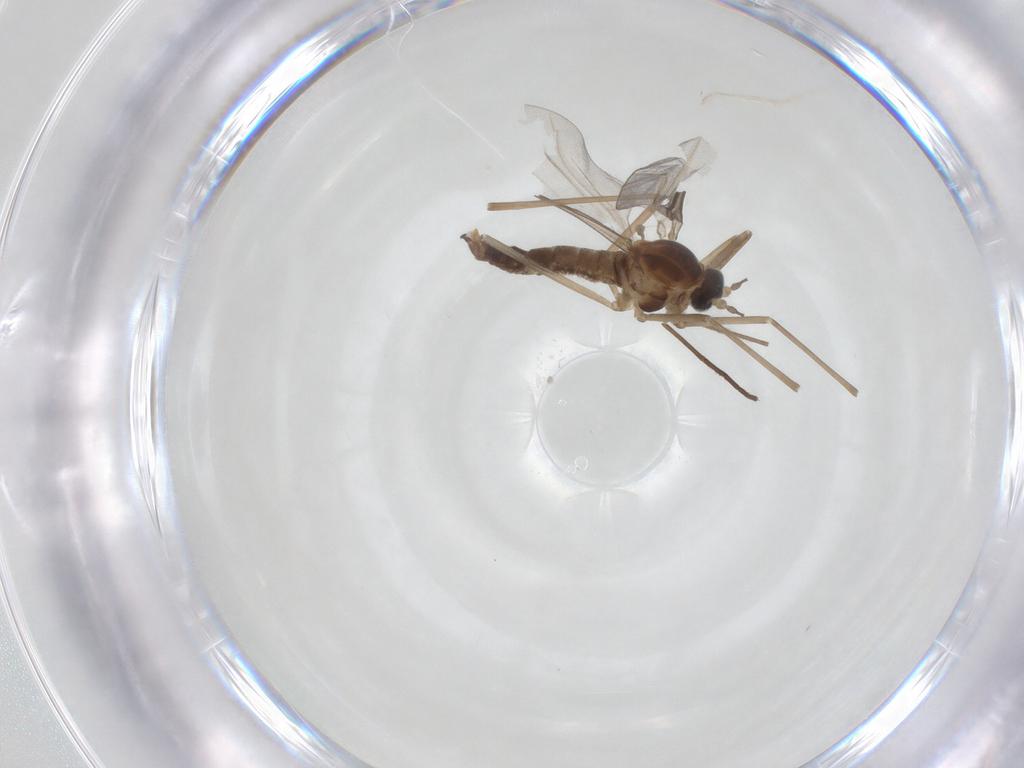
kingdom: Animalia
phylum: Arthropoda
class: Insecta
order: Diptera
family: Cecidomyiidae
